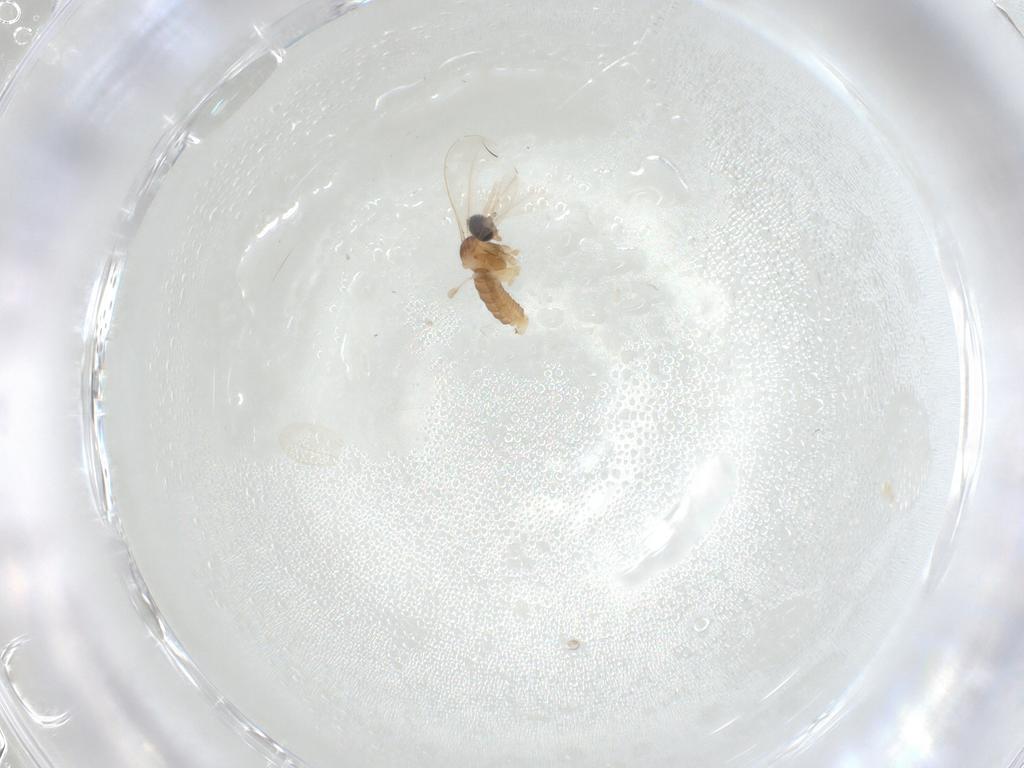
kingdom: Animalia
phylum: Arthropoda
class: Insecta
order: Diptera
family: Cecidomyiidae
